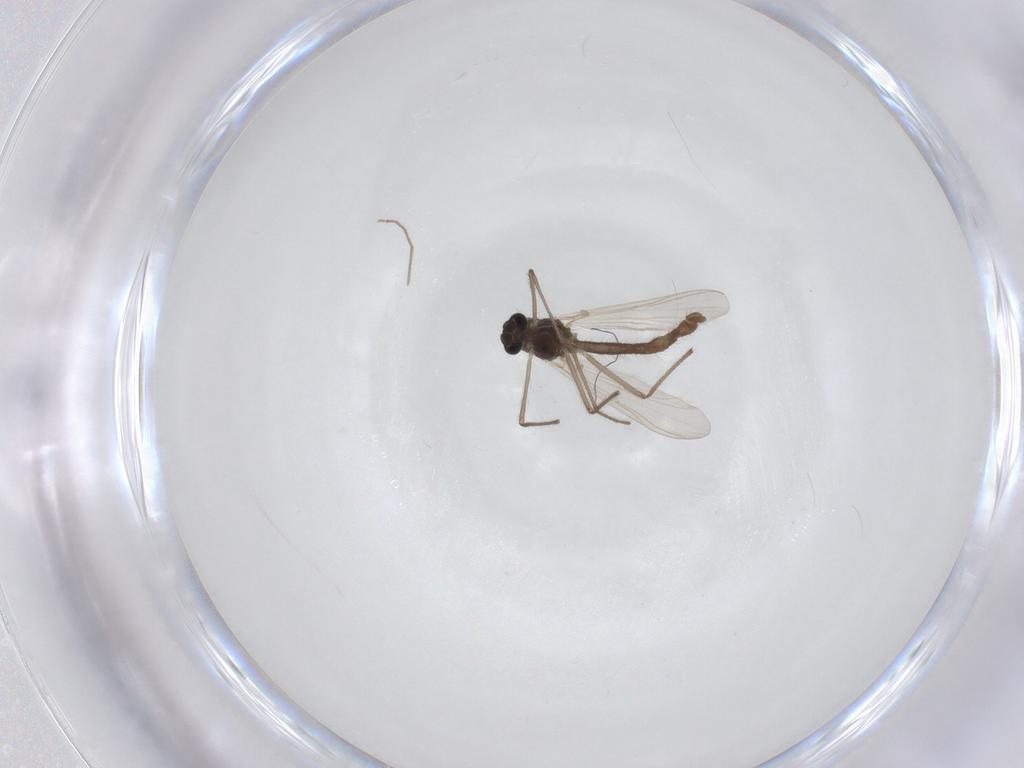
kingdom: Animalia
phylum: Arthropoda
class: Insecta
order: Diptera
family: Chironomidae
